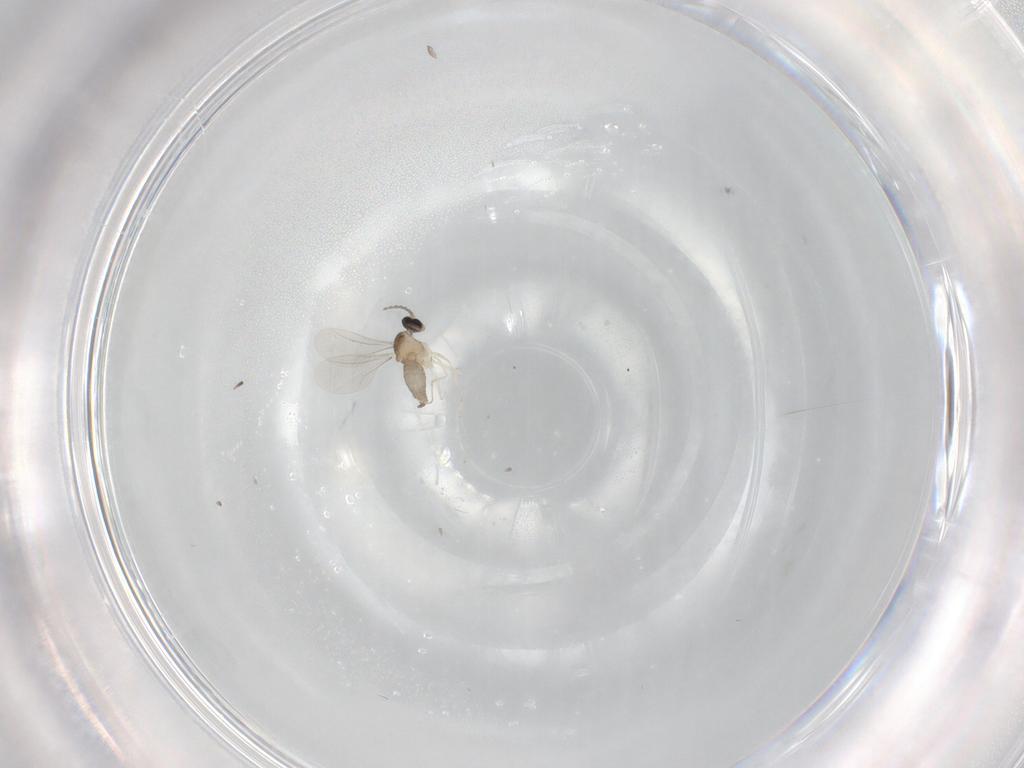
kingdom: Animalia
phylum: Arthropoda
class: Insecta
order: Diptera
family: Cecidomyiidae
